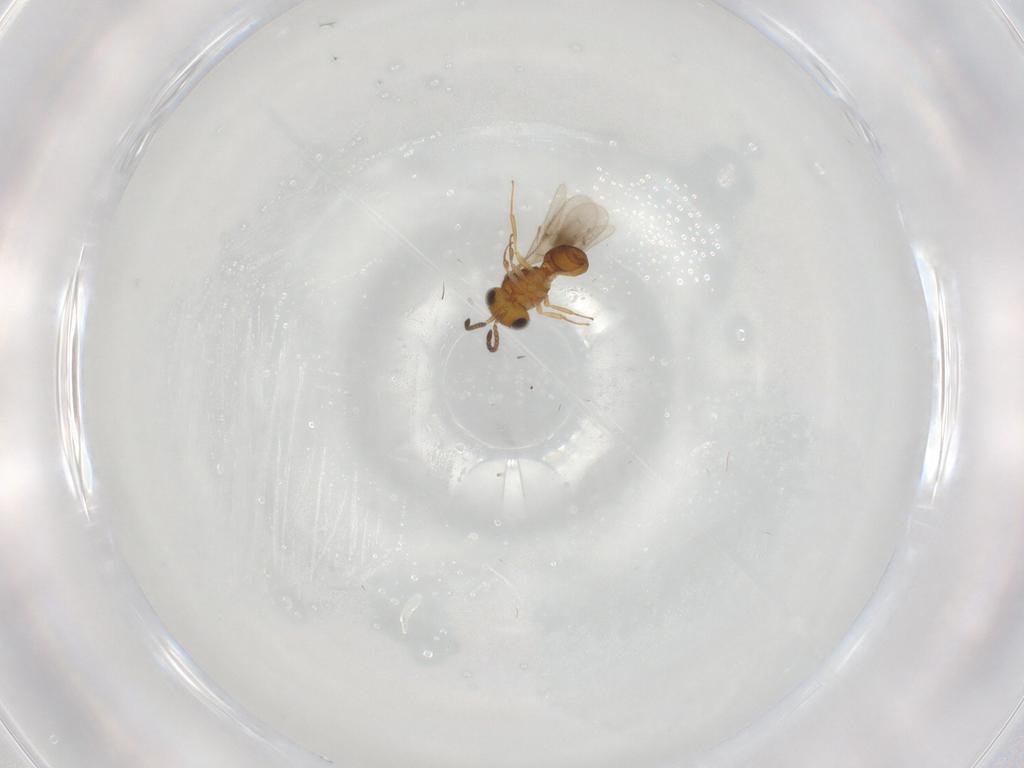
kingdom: Animalia
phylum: Arthropoda
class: Insecta
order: Hymenoptera
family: Scelionidae
